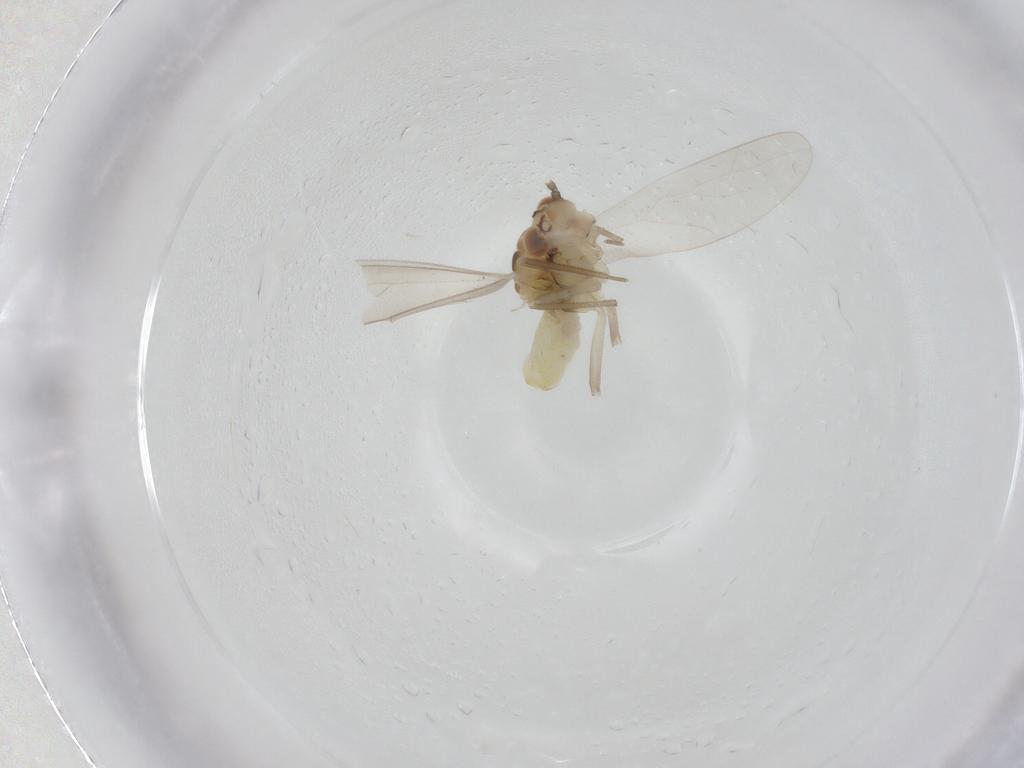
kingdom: Animalia
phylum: Arthropoda
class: Insecta
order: Psocodea
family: Caeciliusidae
